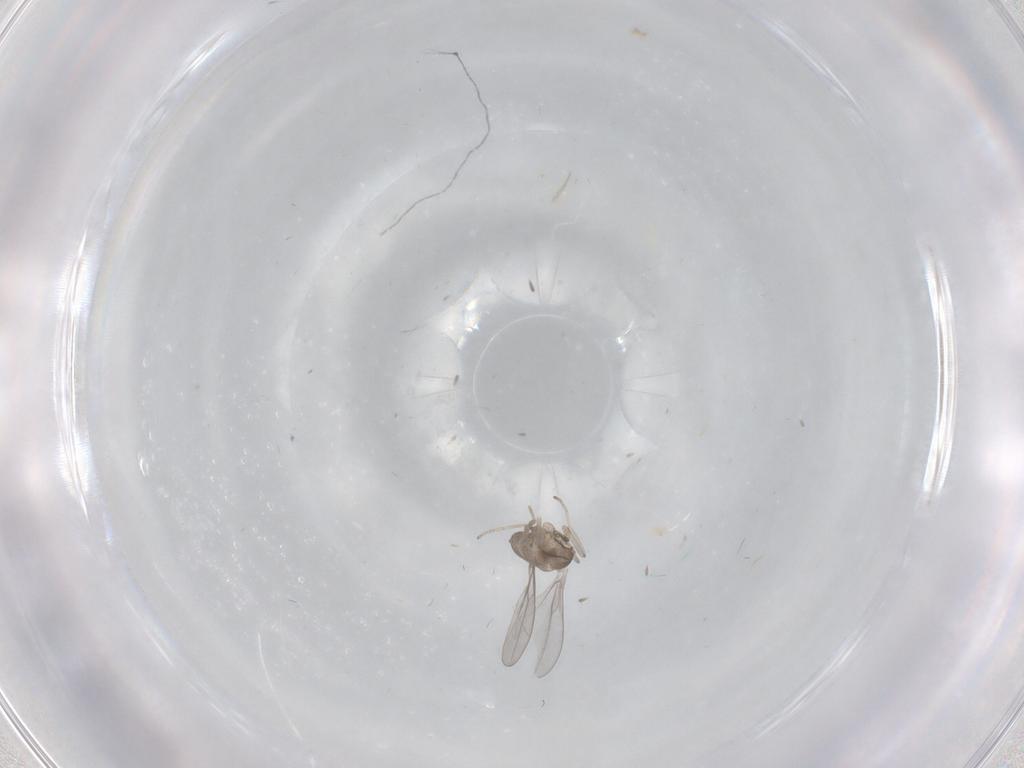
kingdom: Animalia
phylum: Arthropoda
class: Insecta
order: Diptera
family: Cecidomyiidae
